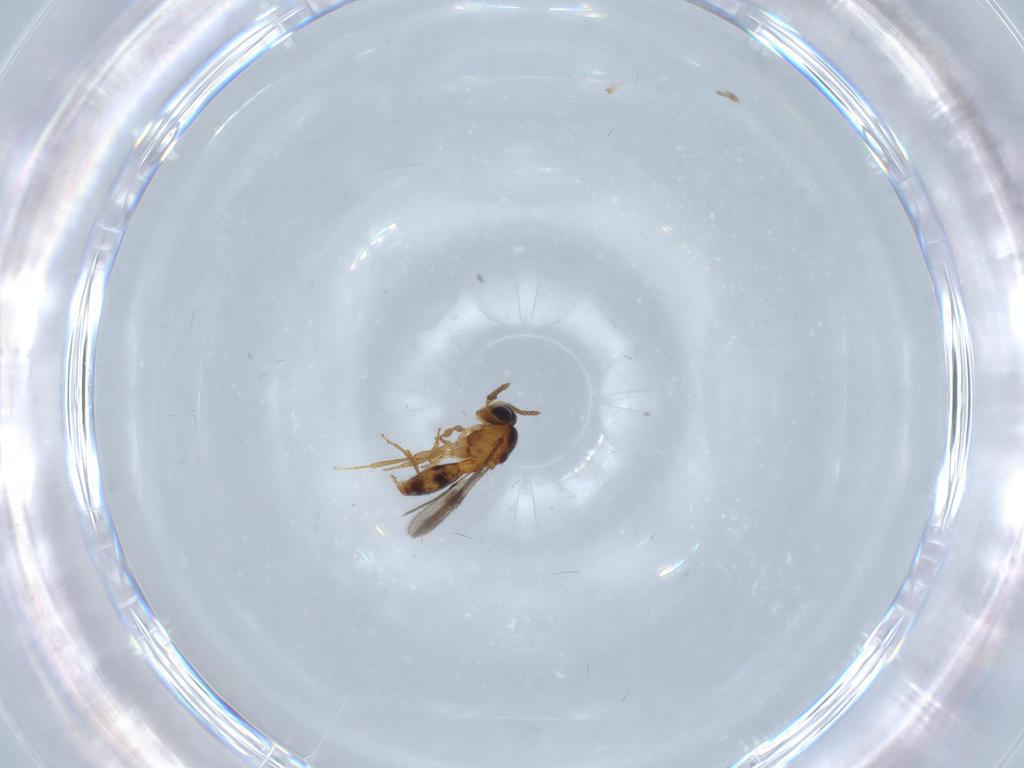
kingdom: Animalia
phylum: Arthropoda
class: Insecta
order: Hymenoptera
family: Scelionidae
